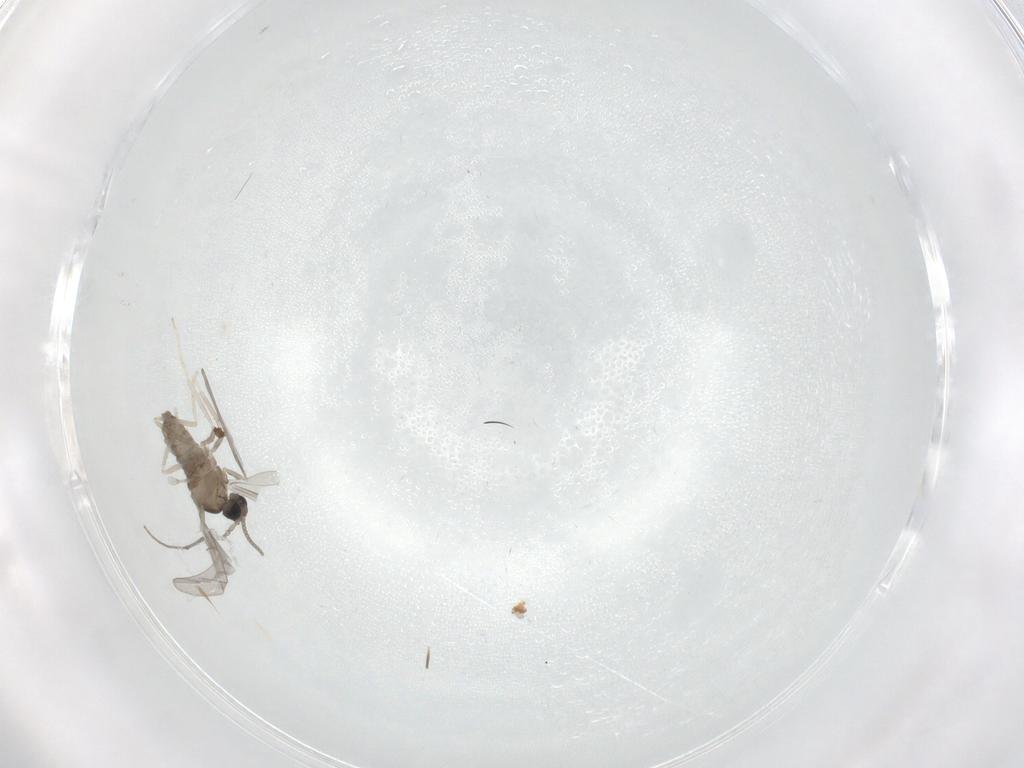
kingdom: Animalia
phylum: Arthropoda
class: Insecta
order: Diptera
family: Cecidomyiidae
